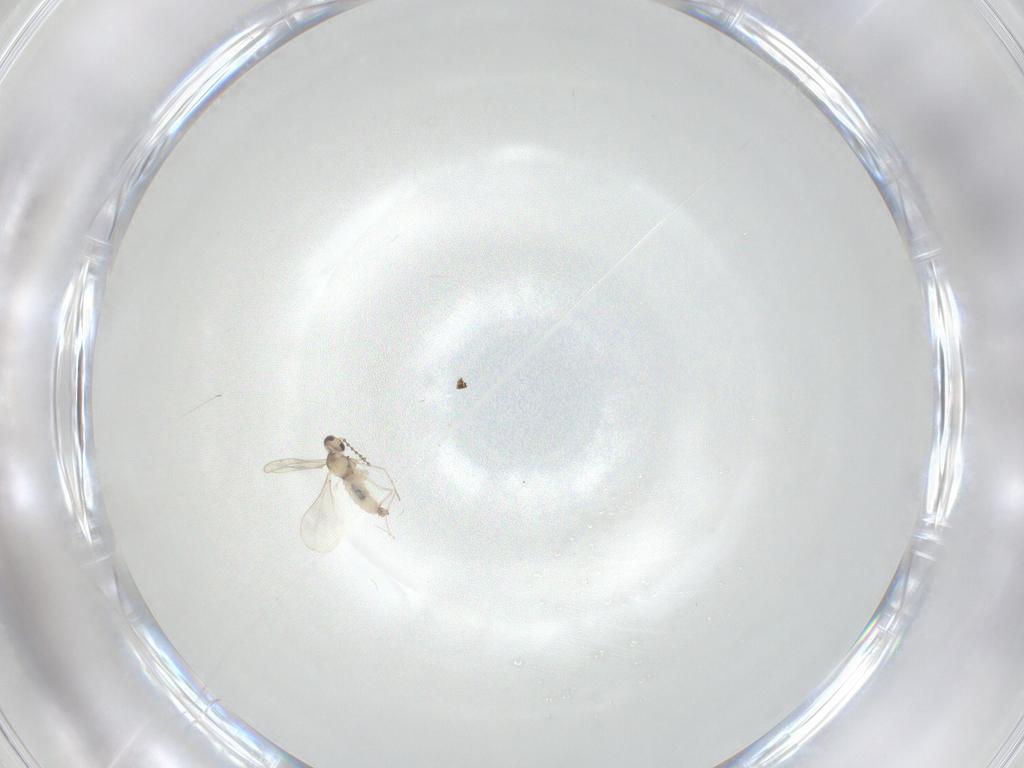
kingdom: Animalia
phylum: Arthropoda
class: Insecta
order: Diptera
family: Cecidomyiidae
